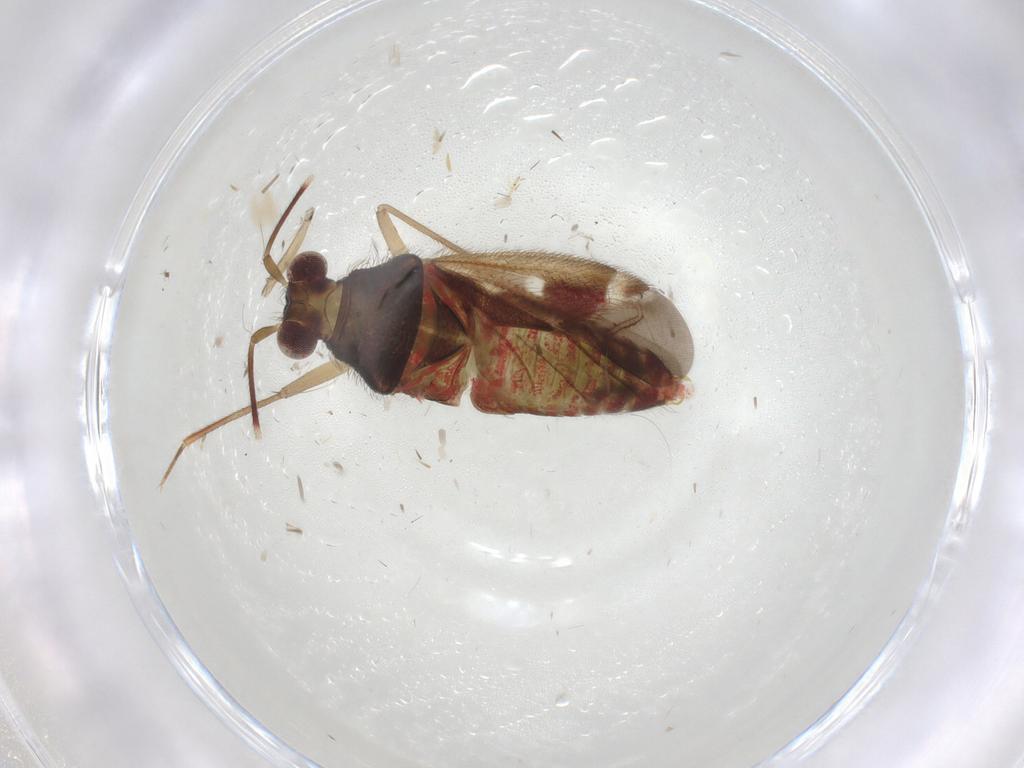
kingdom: Animalia
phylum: Arthropoda
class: Insecta
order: Hemiptera
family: Miridae
